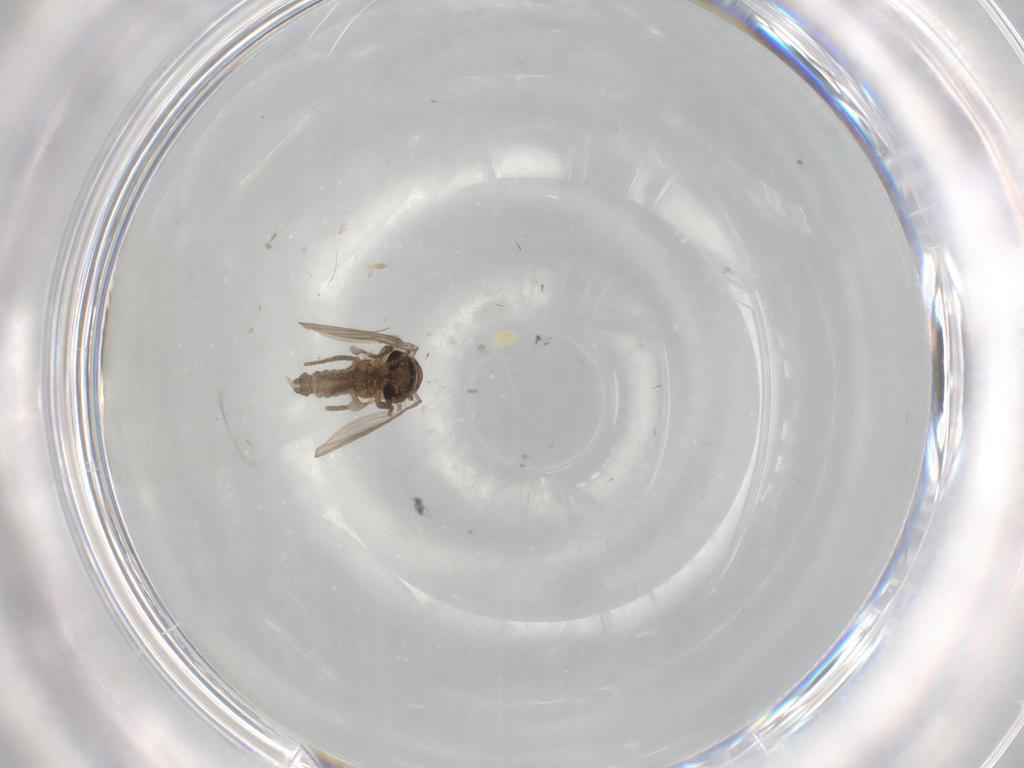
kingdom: Animalia
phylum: Arthropoda
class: Insecta
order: Diptera
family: Psychodidae
